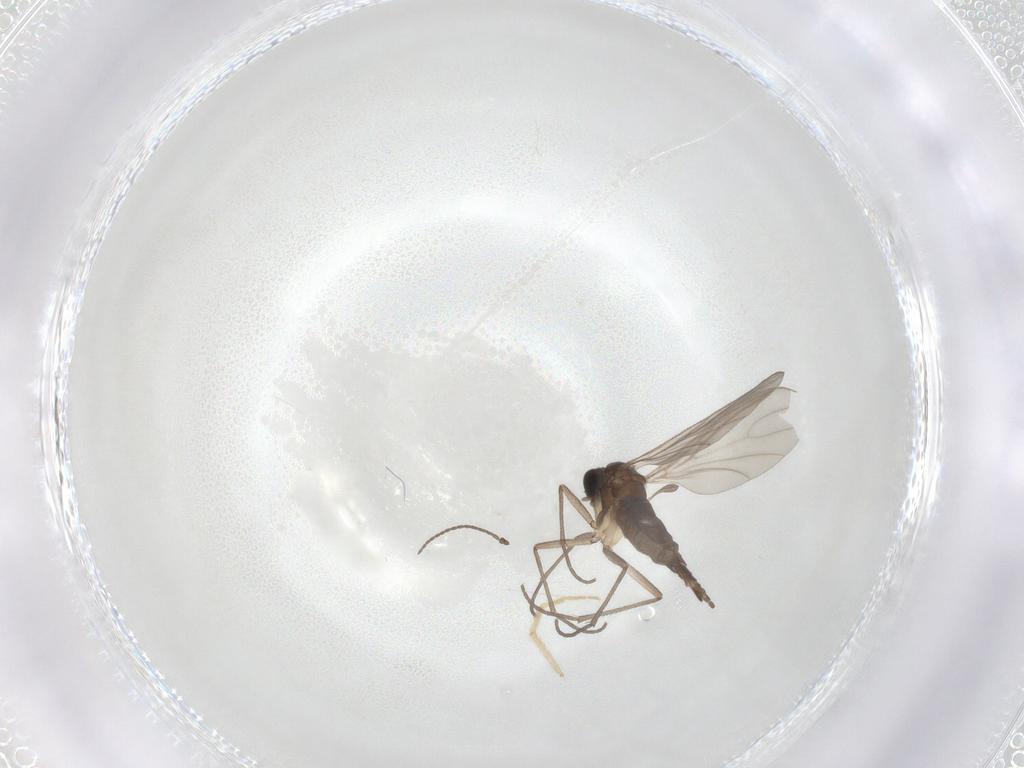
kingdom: Animalia
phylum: Arthropoda
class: Insecta
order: Diptera
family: Sciaridae
